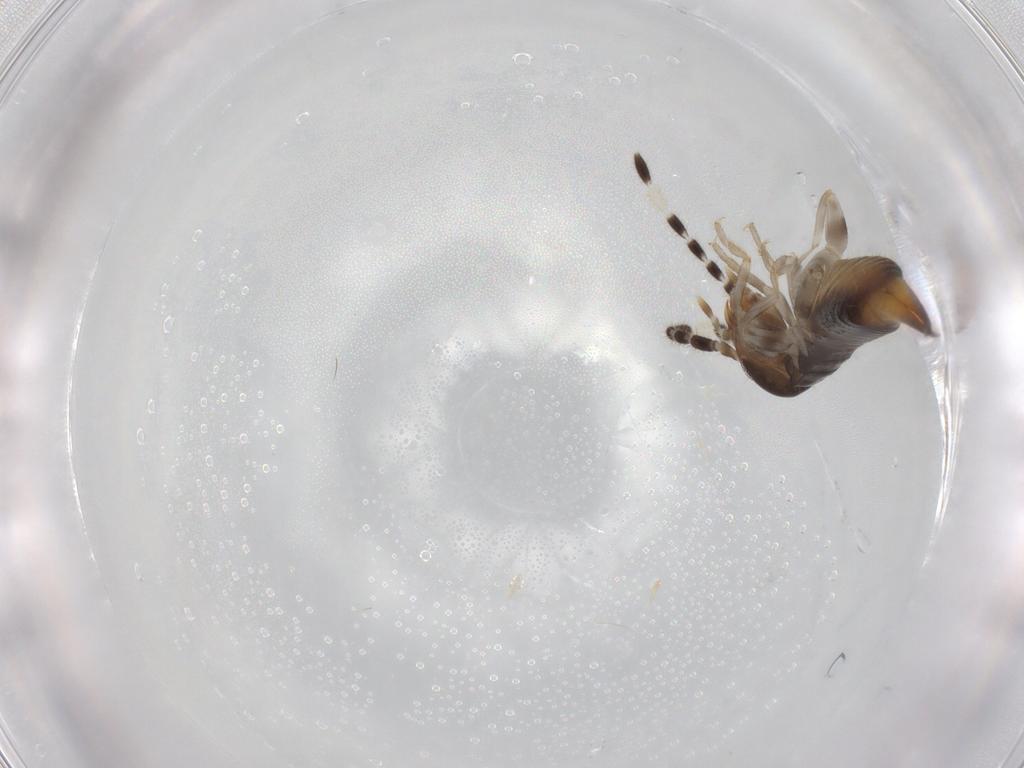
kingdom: Animalia
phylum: Arthropoda
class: Insecta
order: Dermaptera
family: Anisolabididae
